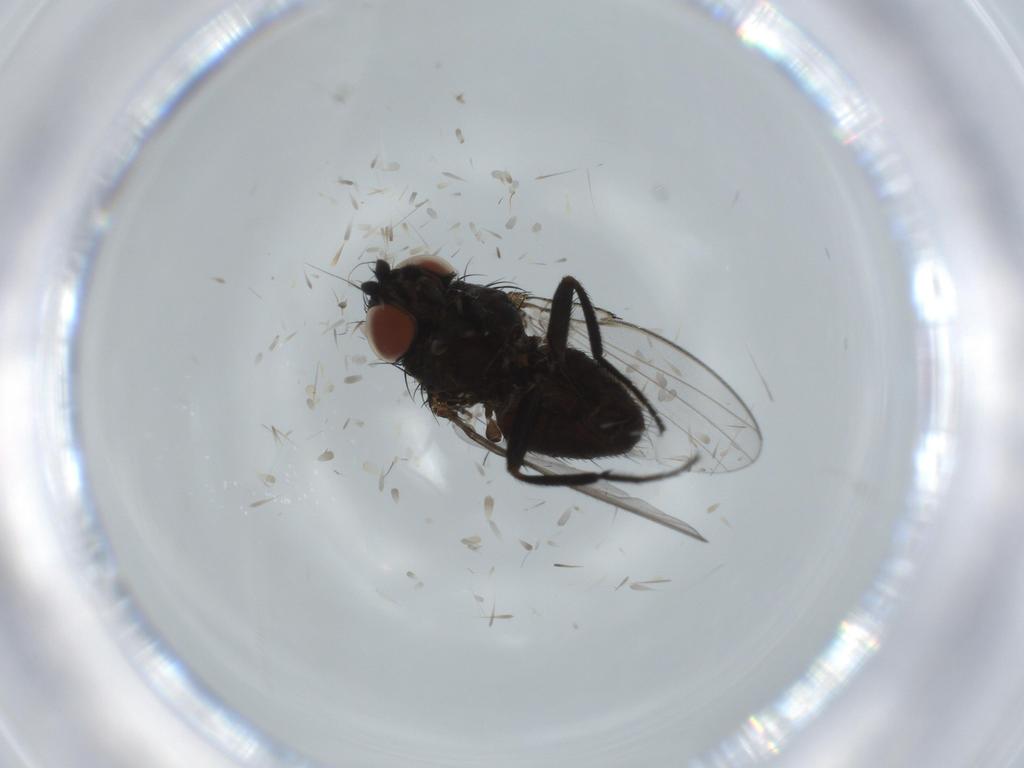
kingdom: Animalia
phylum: Arthropoda
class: Insecta
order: Diptera
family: Milichiidae
